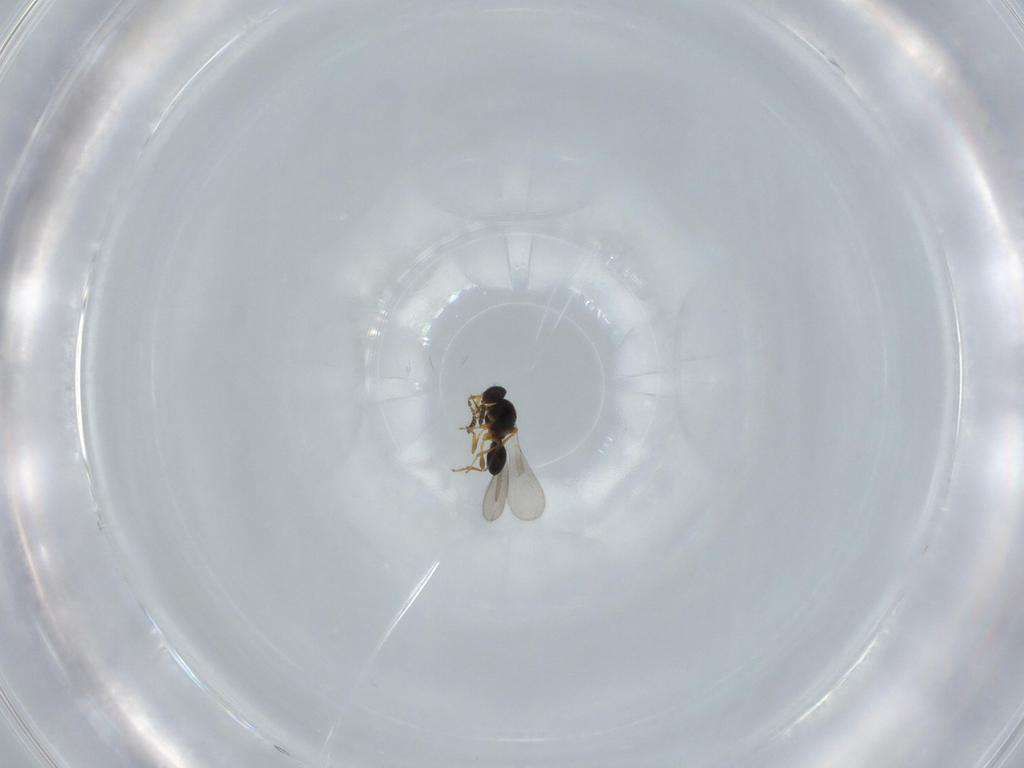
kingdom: Animalia
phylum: Arthropoda
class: Insecta
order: Hymenoptera
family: Platygastridae
